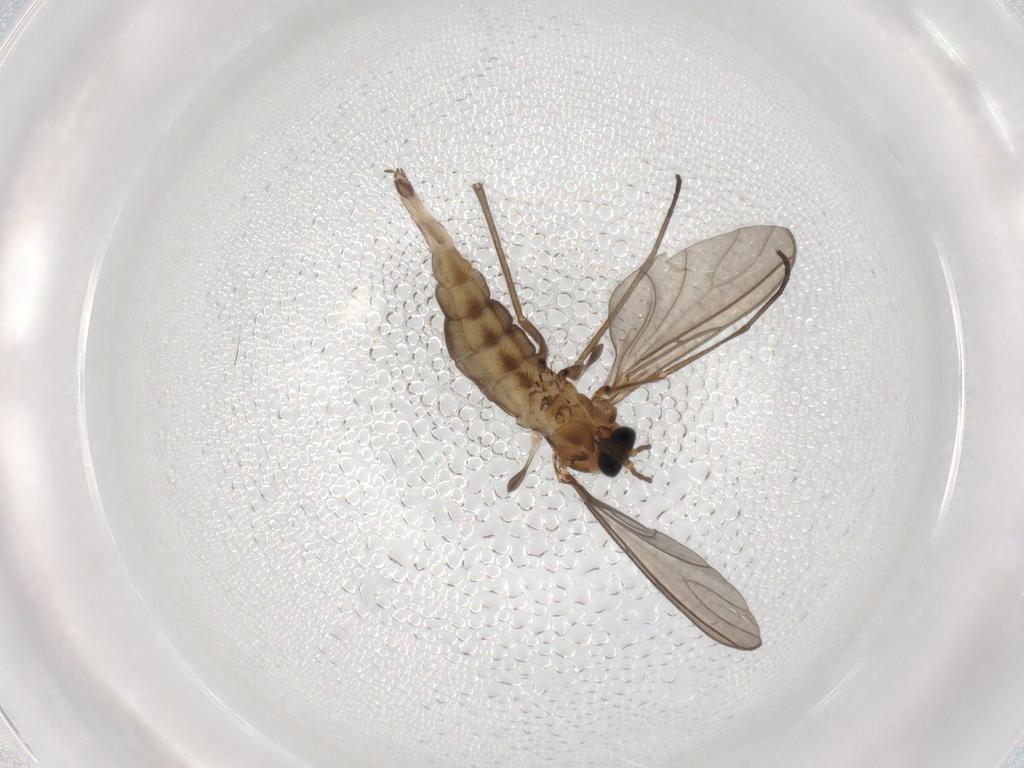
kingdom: Animalia
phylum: Arthropoda
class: Insecta
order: Diptera
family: Sciaridae
